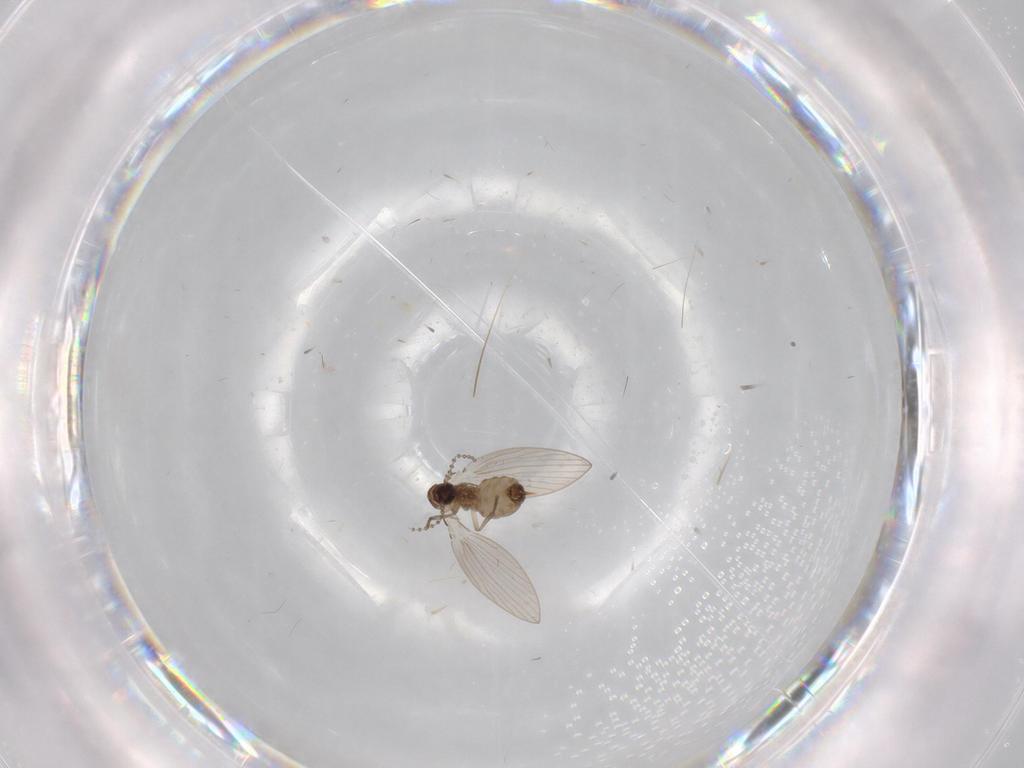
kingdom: Animalia
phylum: Arthropoda
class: Insecta
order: Diptera
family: Psychodidae
